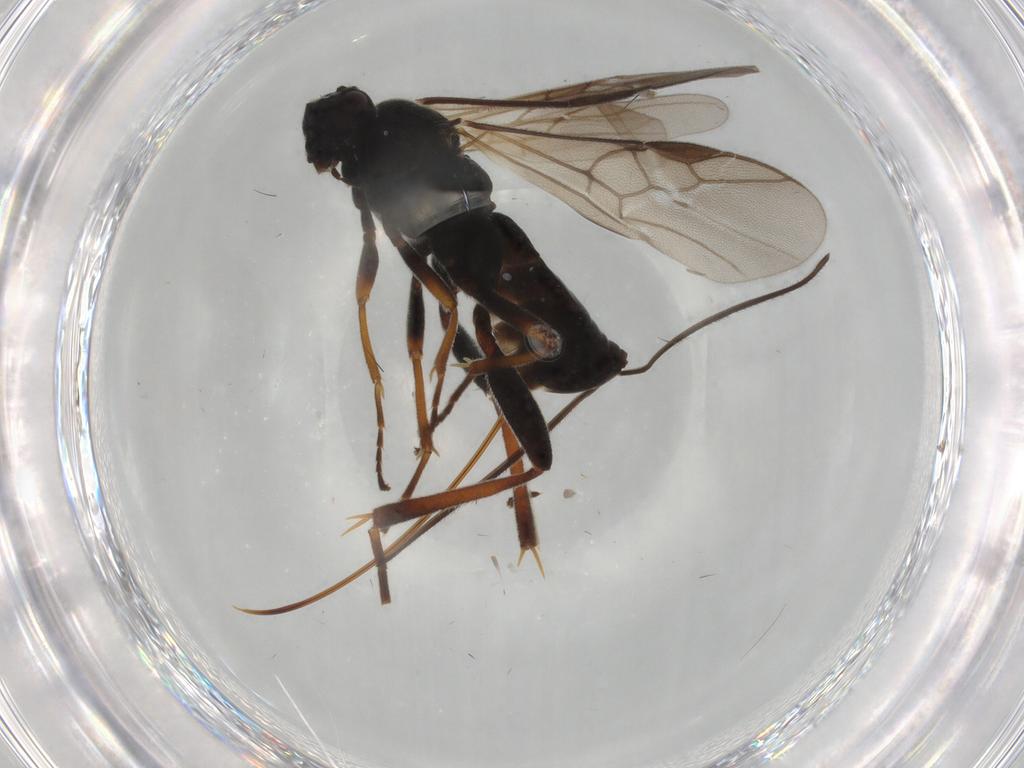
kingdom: Animalia
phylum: Arthropoda
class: Insecta
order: Hymenoptera
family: Braconidae
